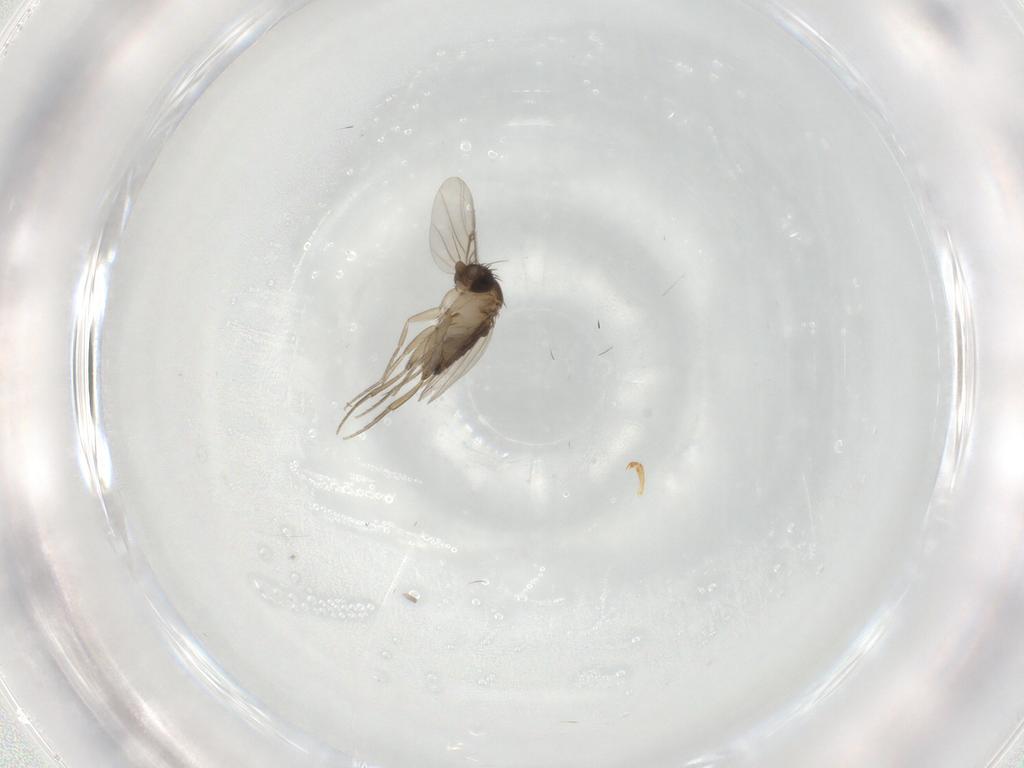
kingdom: Animalia
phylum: Arthropoda
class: Insecta
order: Diptera
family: Phoridae
